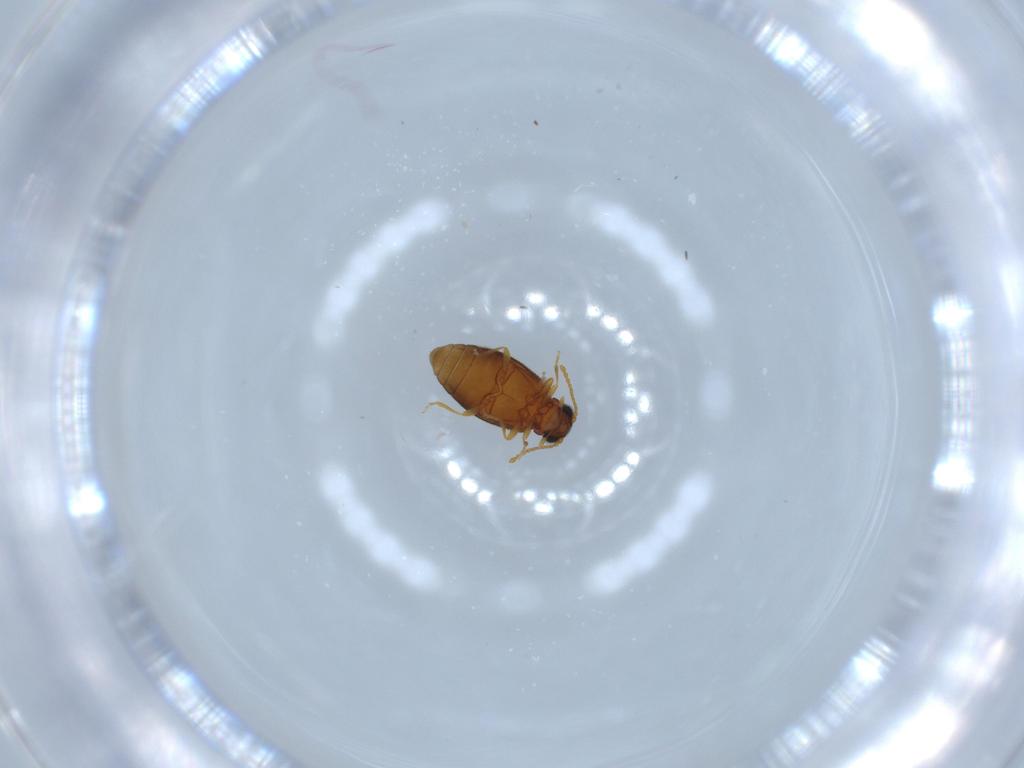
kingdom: Animalia
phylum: Arthropoda
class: Insecta
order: Coleoptera
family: Aderidae
